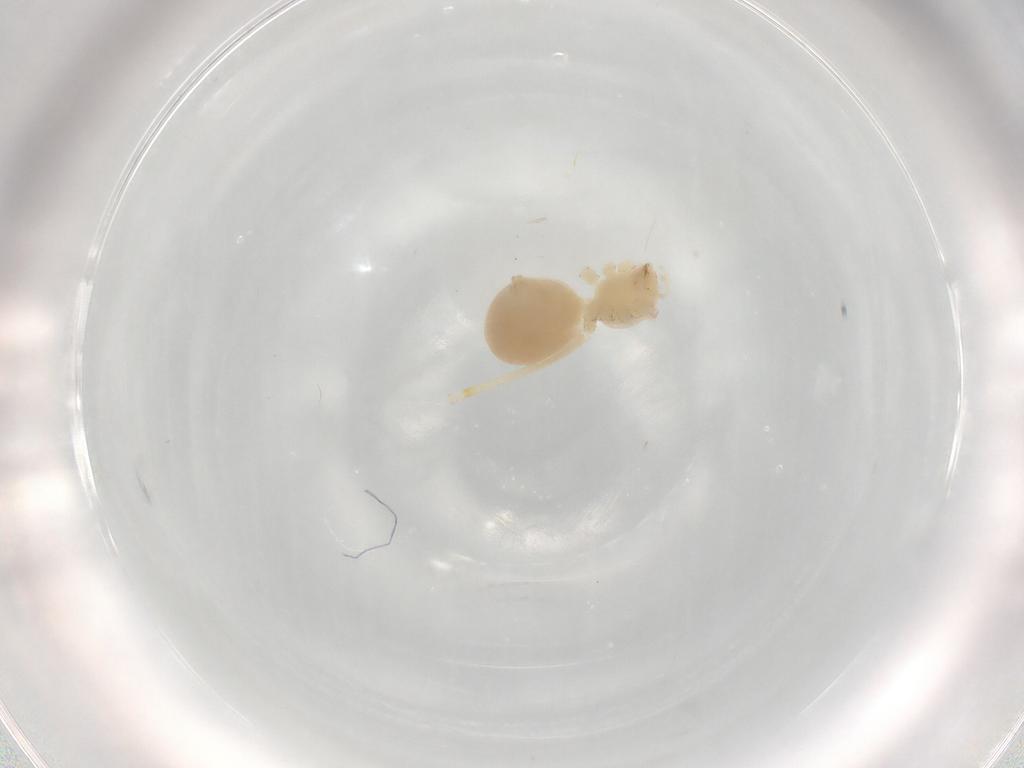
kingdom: Animalia
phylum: Arthropoda
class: Arachnida
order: Araneae
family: Pholcidae
